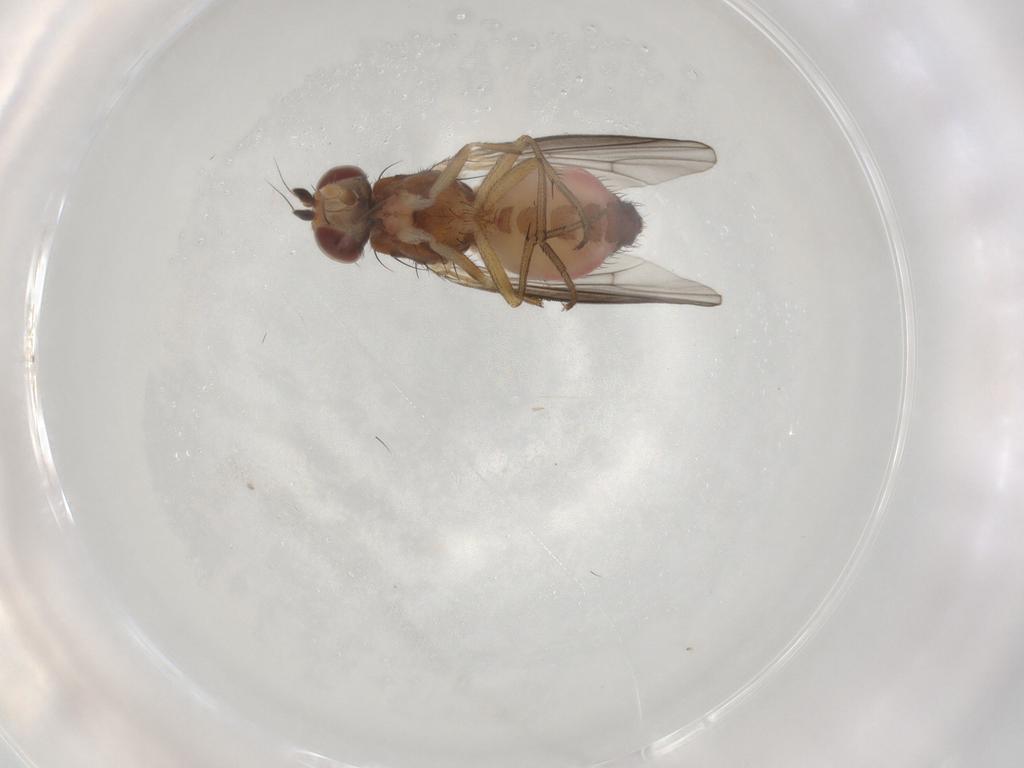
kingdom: Animalia
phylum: Arthropoda
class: Insecta
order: Diptera
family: Heleomyzidae
